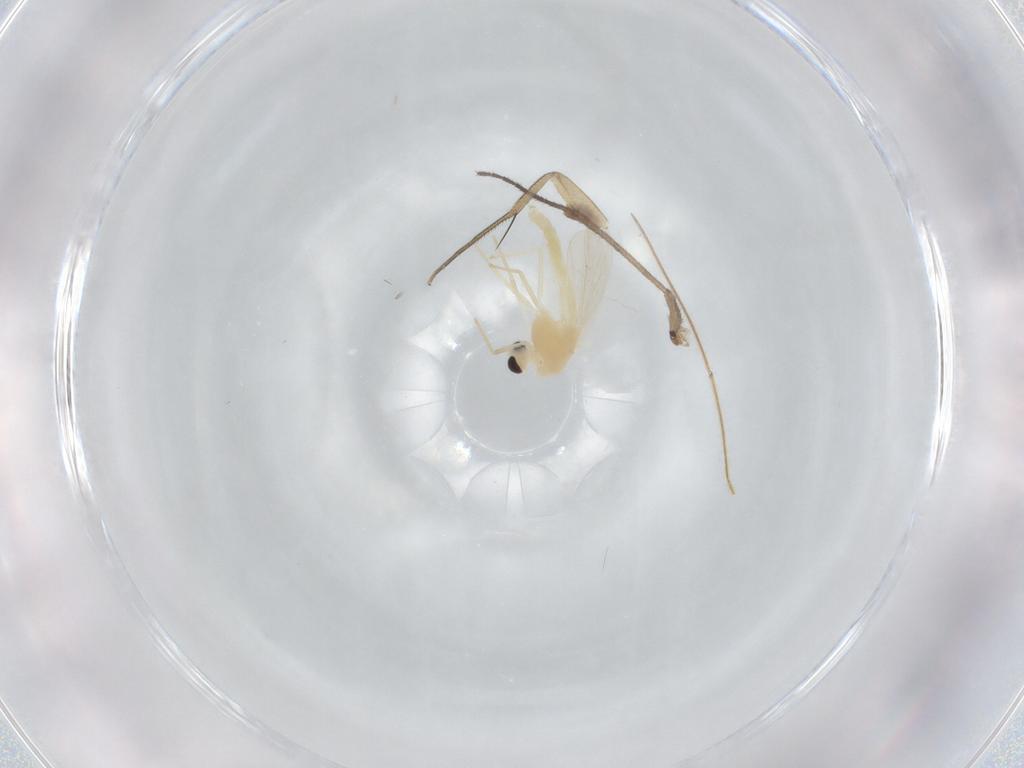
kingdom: Animalia
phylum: Arthropoda
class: Insecta
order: Diptera
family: Chironomidae
